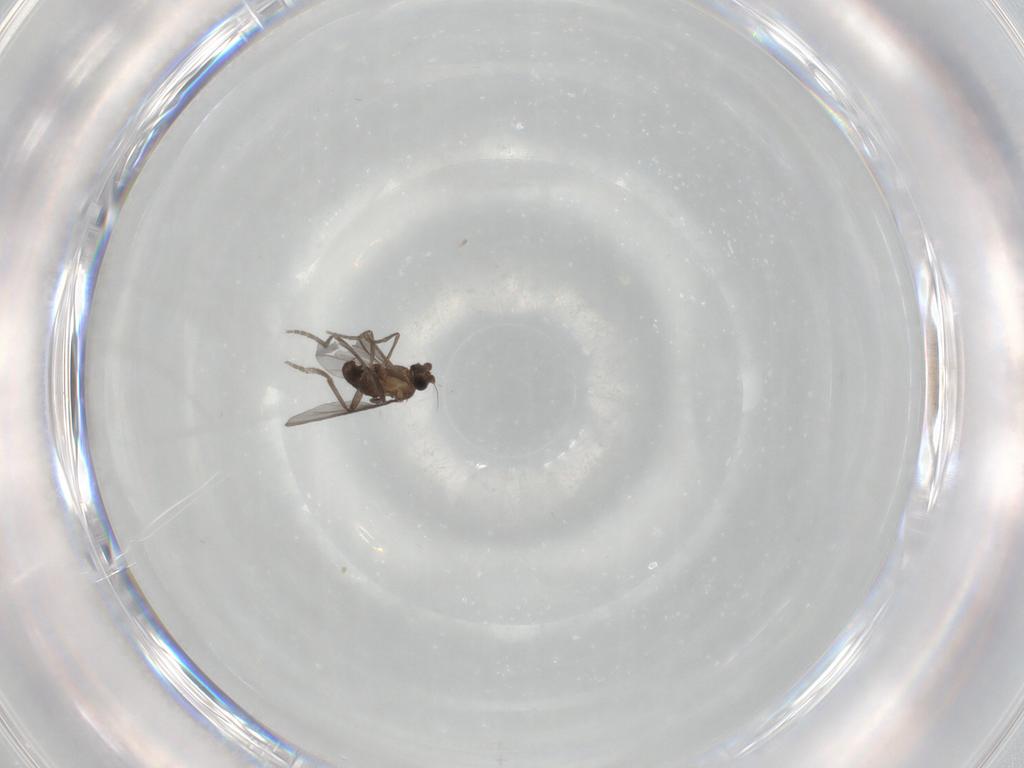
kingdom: Animalia
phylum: Arthropoda
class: Insecta
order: Diptera
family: Phoridae
